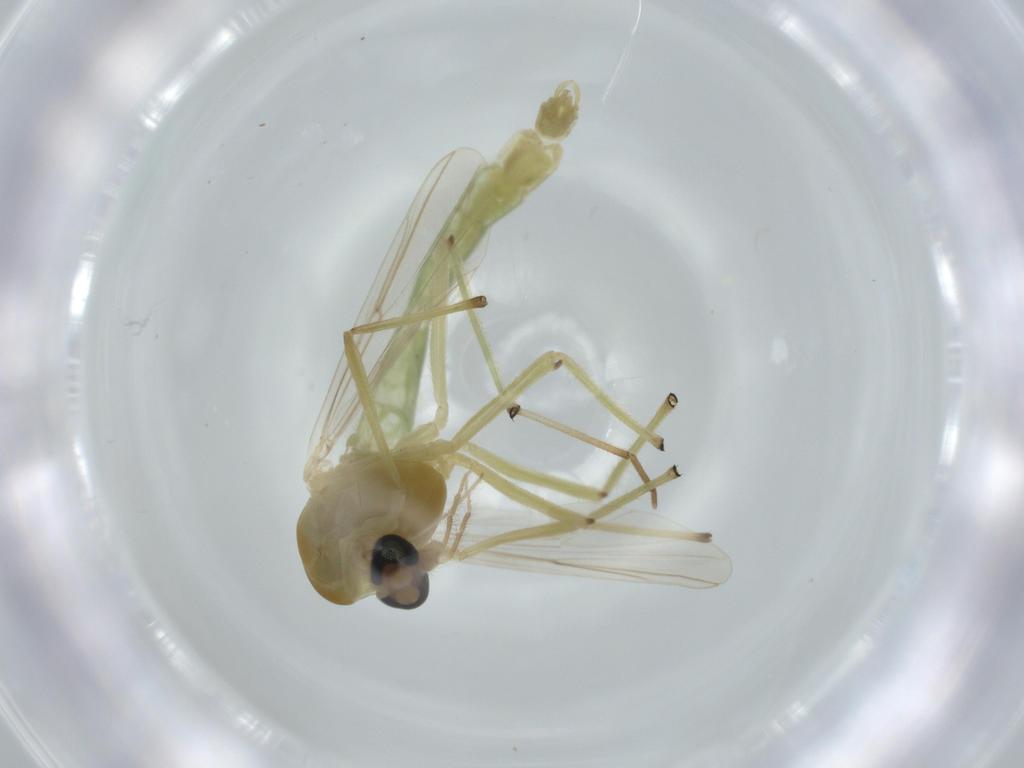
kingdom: Animalia
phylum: Arthropoda
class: Insecta
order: Diptera
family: Chironomidae
